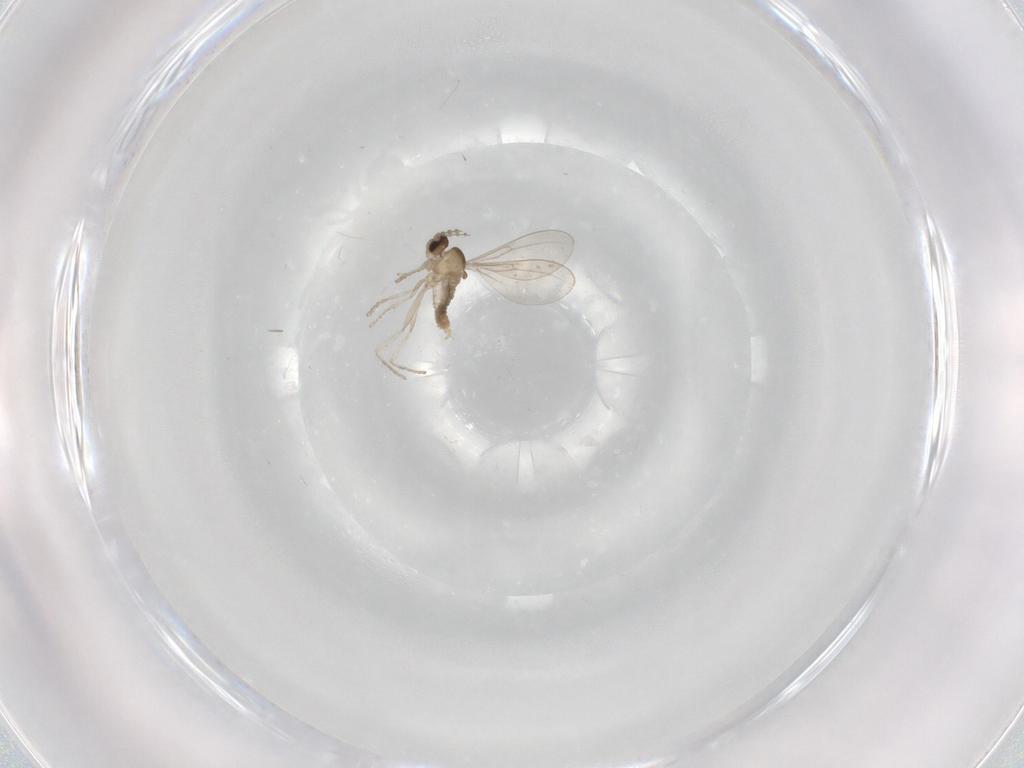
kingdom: Animalia
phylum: Arthropoda
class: Insecta
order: Diptera
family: Cecidomyiidae
